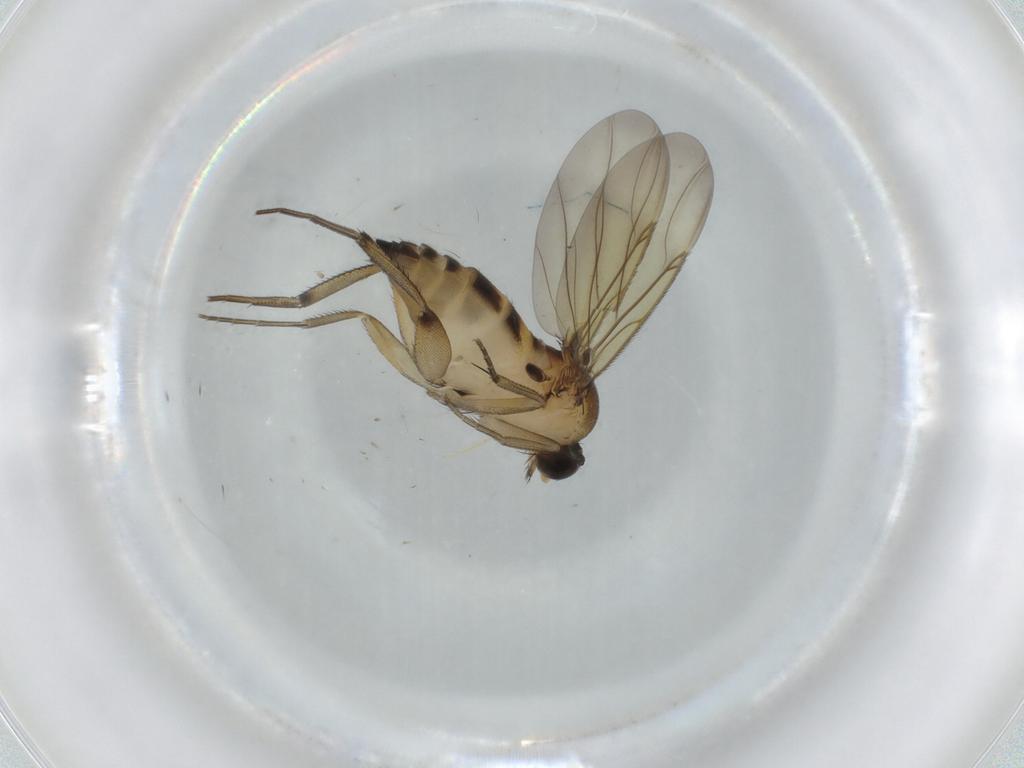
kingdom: Animalia
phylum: Arthropoda
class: Insecta
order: Diptera
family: Phoridae
